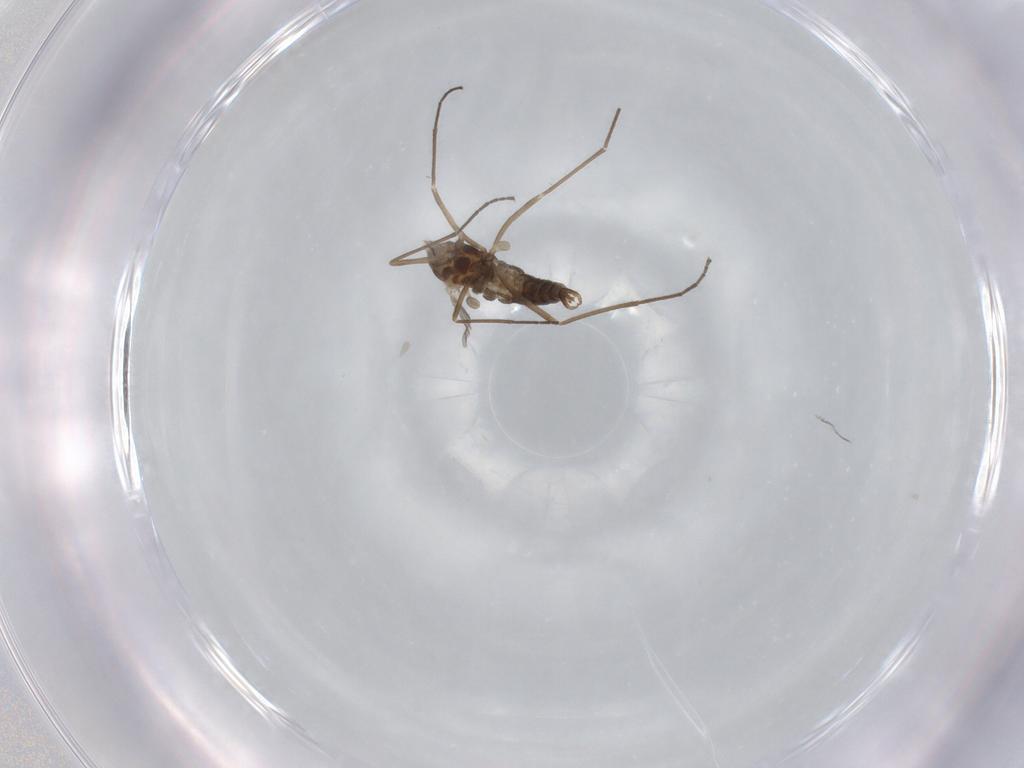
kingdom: Animalia
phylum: Arthropoda
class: Insecta
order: Diptera
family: Cecidomyiidae
